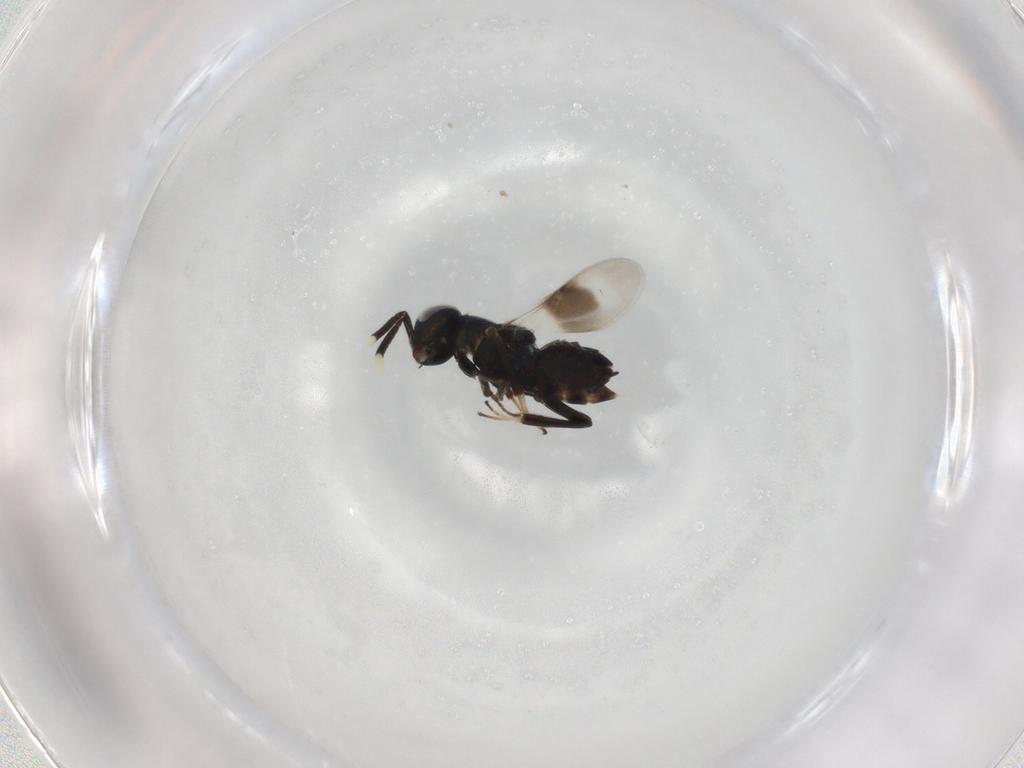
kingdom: Animalia
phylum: Arthropoda
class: Insecta
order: Hymenoptera
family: Encyrtidae
